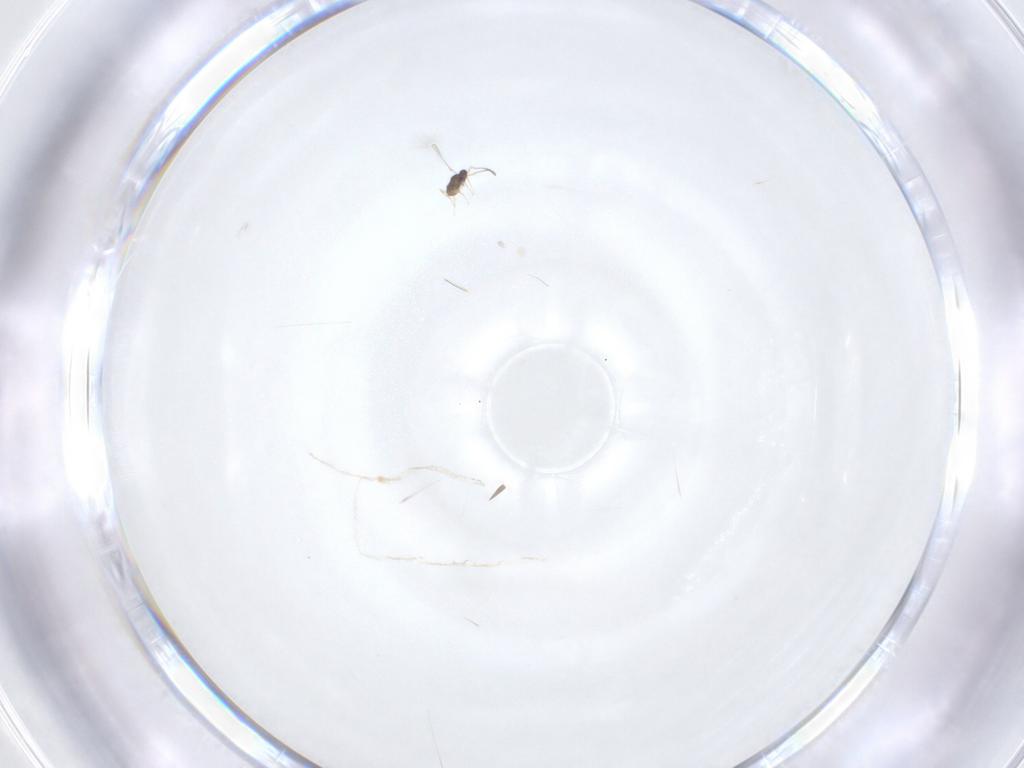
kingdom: Animalia
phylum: Arthropoda
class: Insecta
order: Hymenoptera
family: Mymaridae
